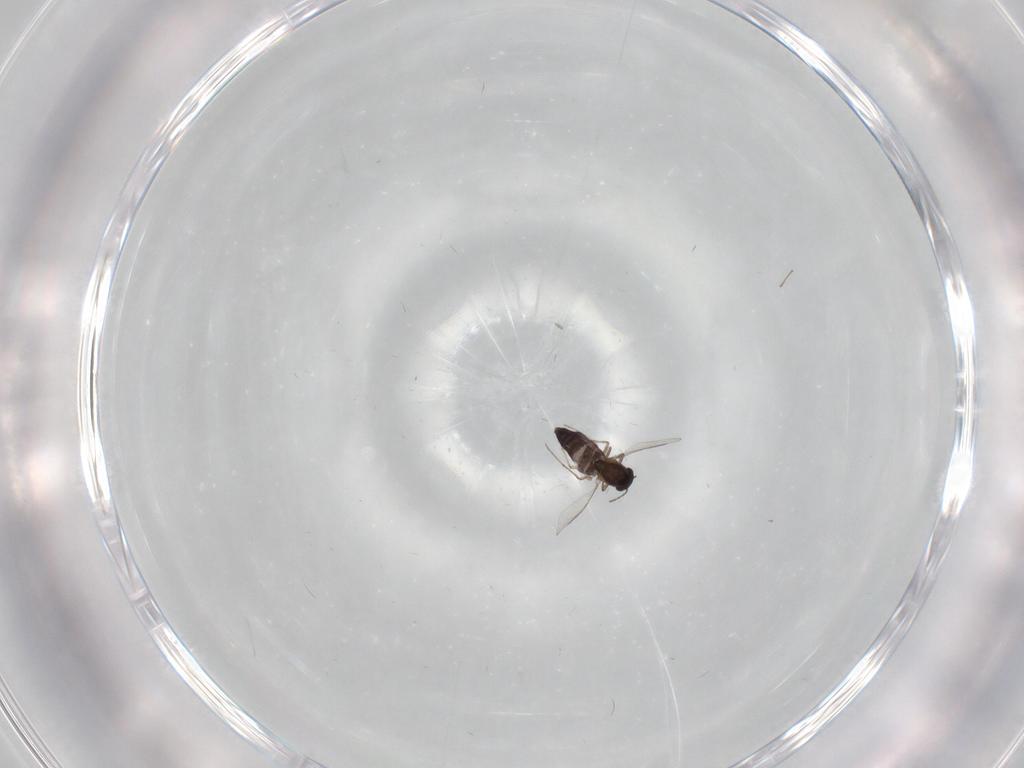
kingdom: Animalia
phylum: Arthropoda
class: Insecta
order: Diptera
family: Chironomidae
